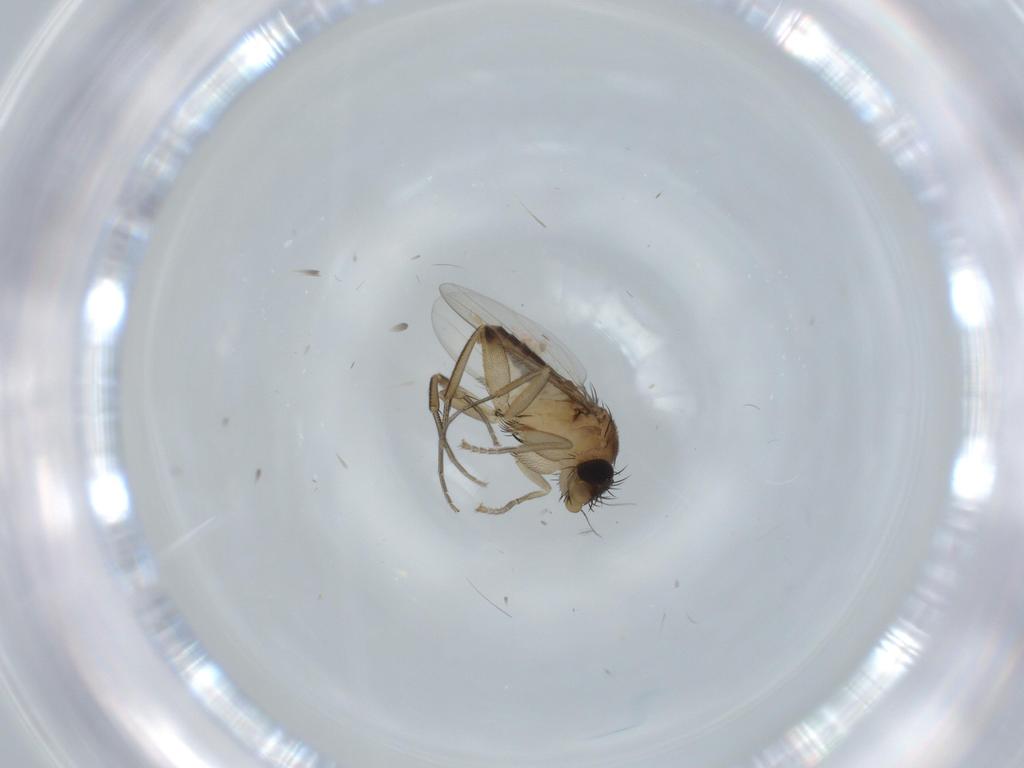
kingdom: Animalia
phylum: Arthropoda
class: Insecta
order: Diptera
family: Phoridae
